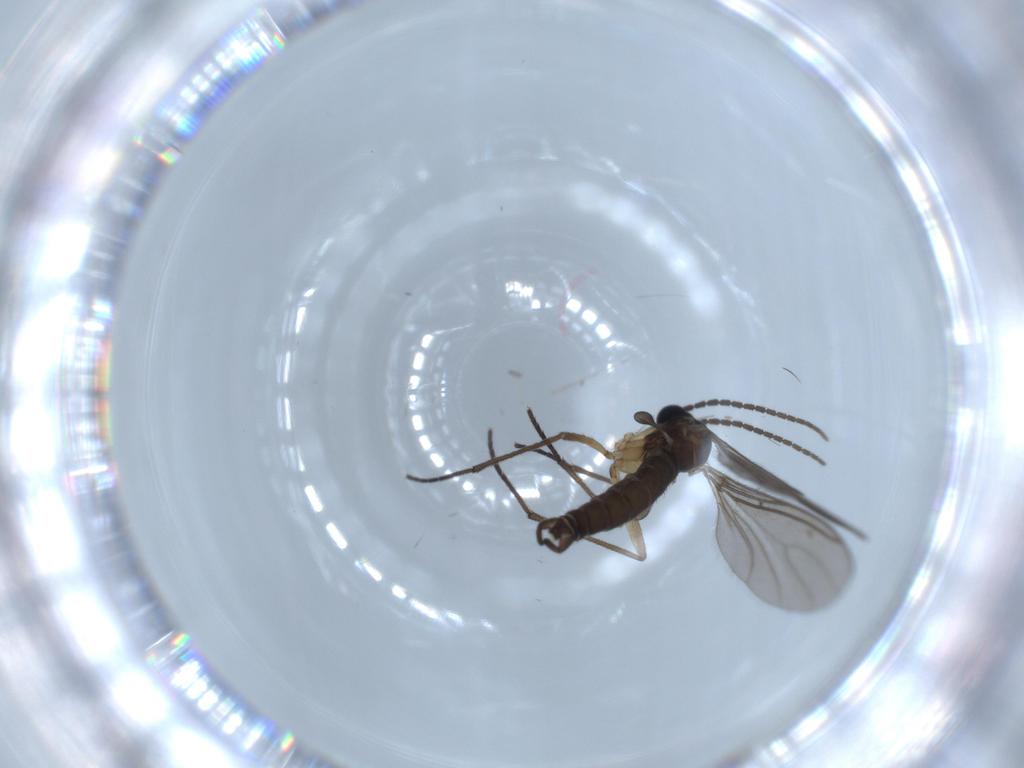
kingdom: Animalia
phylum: Arthropoda
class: Insecta
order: Diptera
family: Sciaridae
